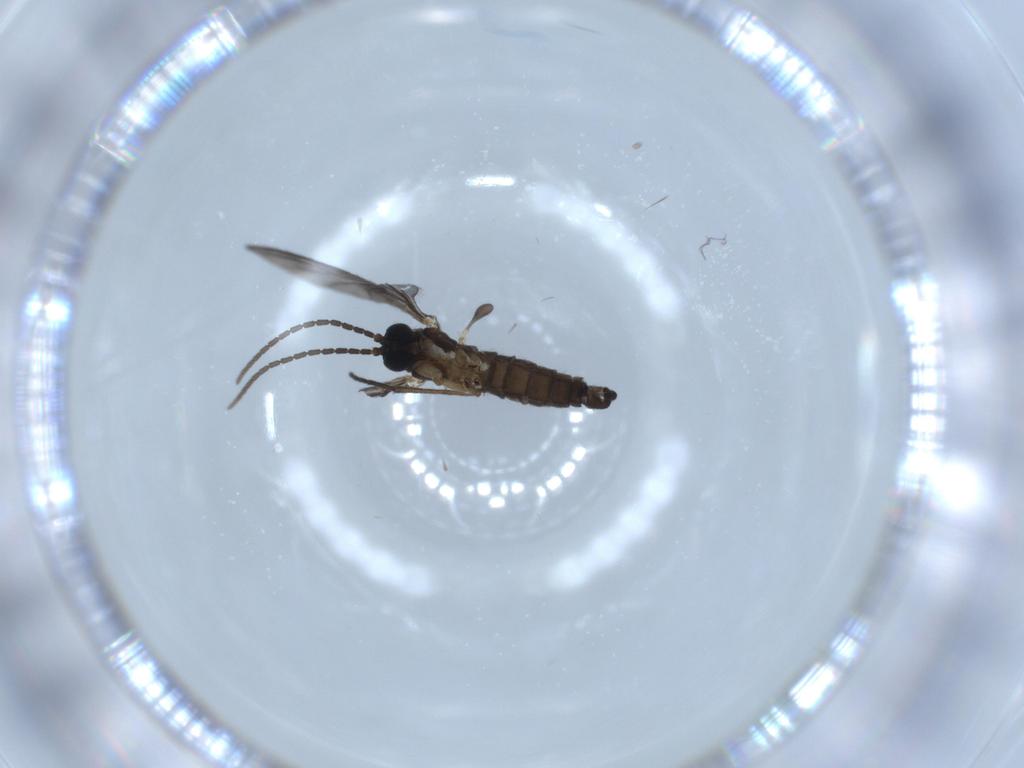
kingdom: Animalia
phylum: Arthropoda
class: Insecta
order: Diptera
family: Sciaridae
